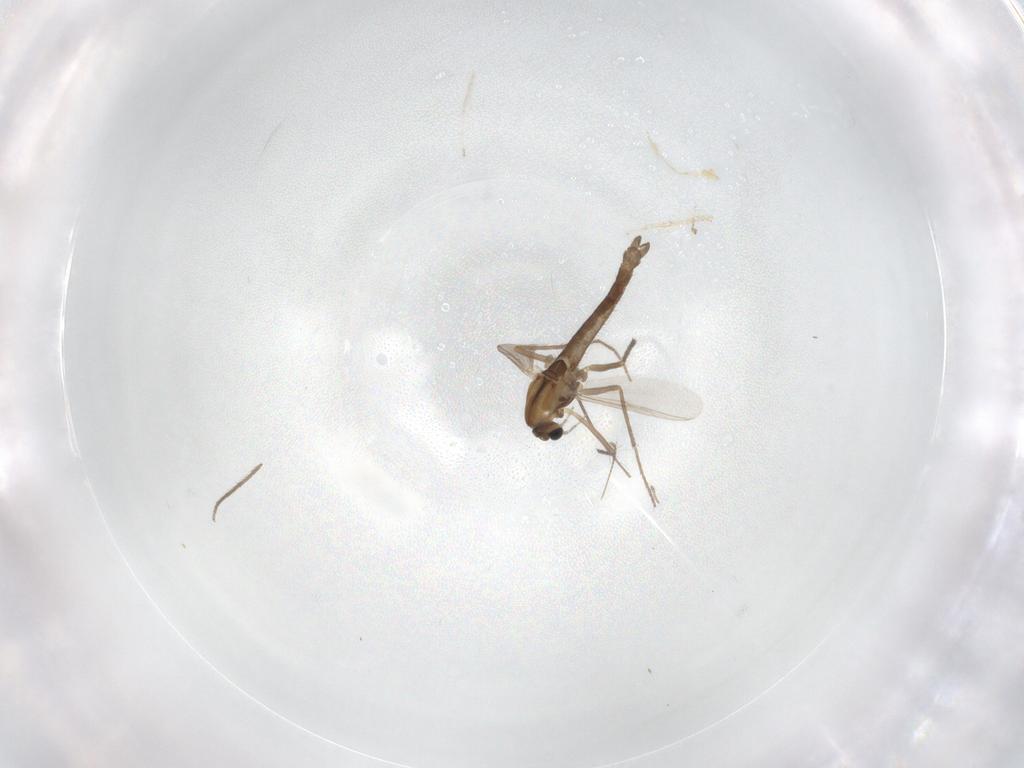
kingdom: Animalia
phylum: Arthropoda
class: Insecta
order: Diptera
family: Chironomidae
